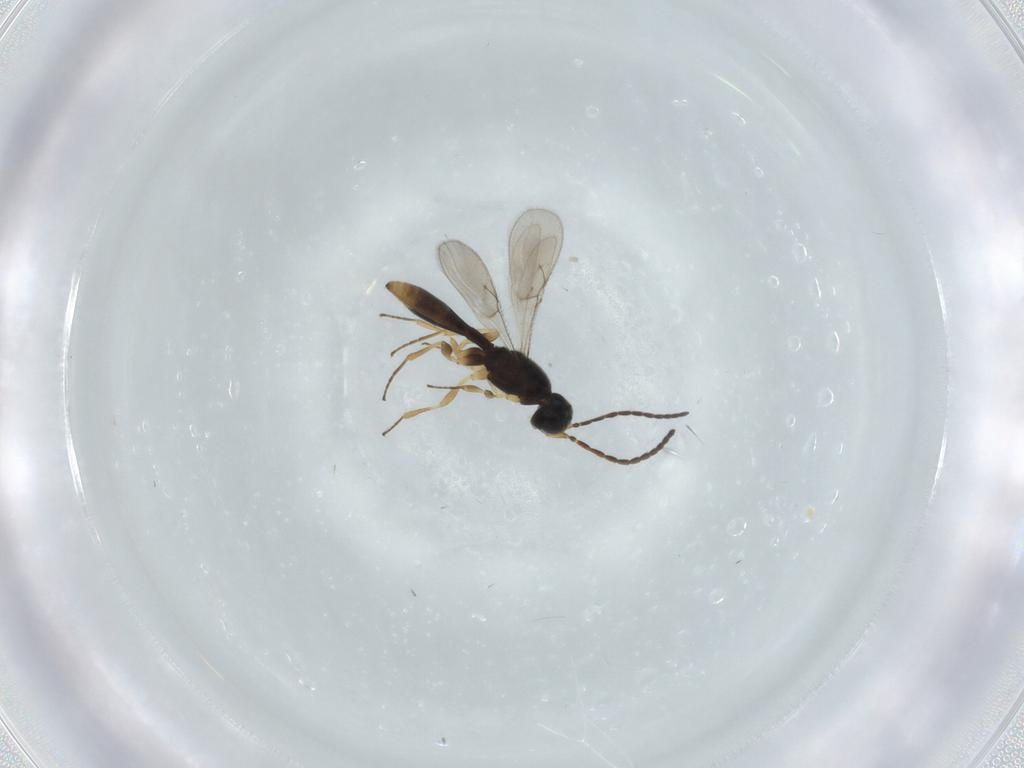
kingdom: Animalia
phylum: Arthropoda
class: Insecta
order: Hymenoptera
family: Scelionidae
